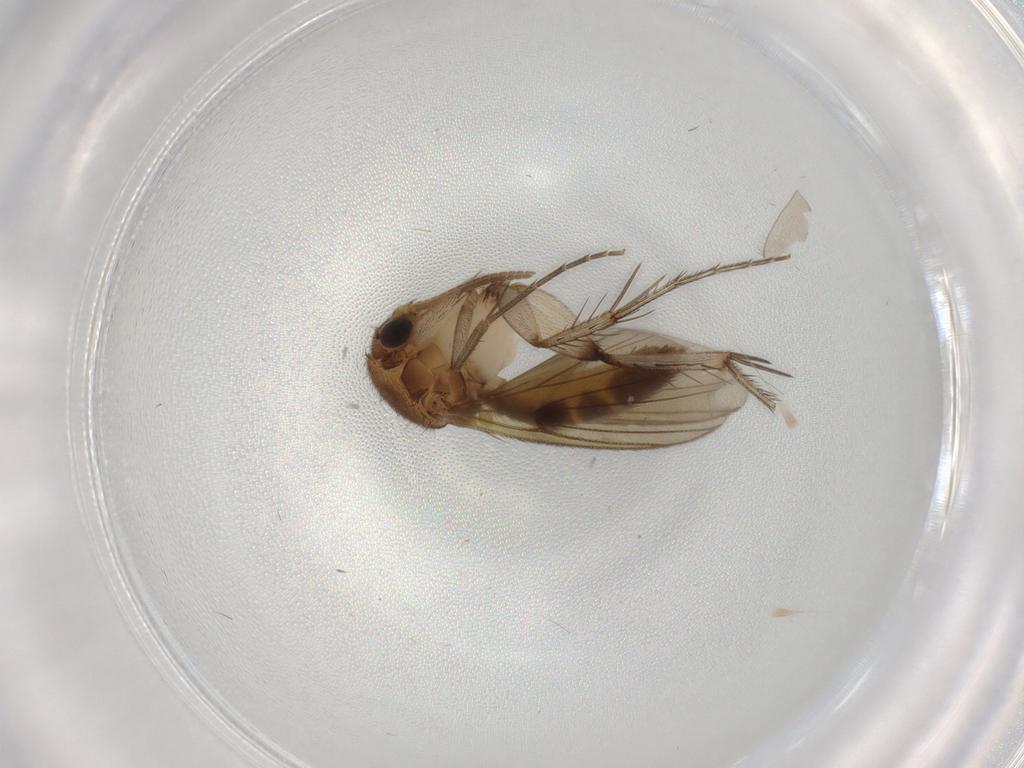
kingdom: Animalia
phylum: Arthropoda
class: Insecta
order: Diptera
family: Mycetophilidae
